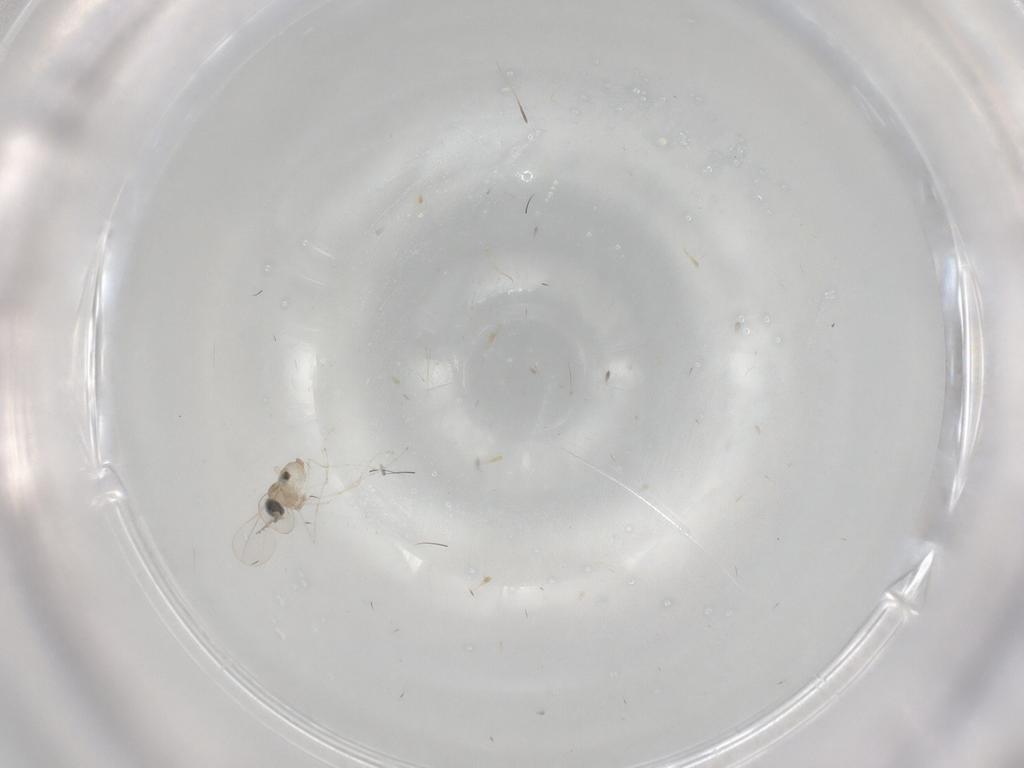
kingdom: Animalia
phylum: Arthropoda
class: Insecta
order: Diptera
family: Cecidomyiidae
